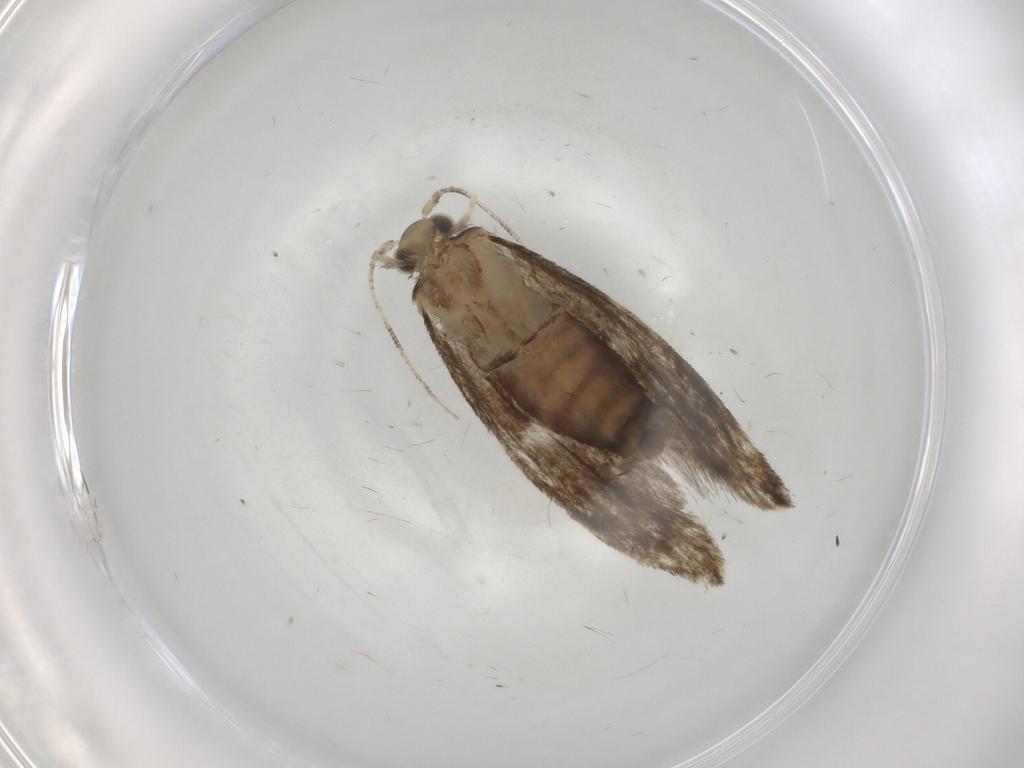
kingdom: Animalia
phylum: Arthropoda
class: Insecta
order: Lepidoptera
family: Tineidae
